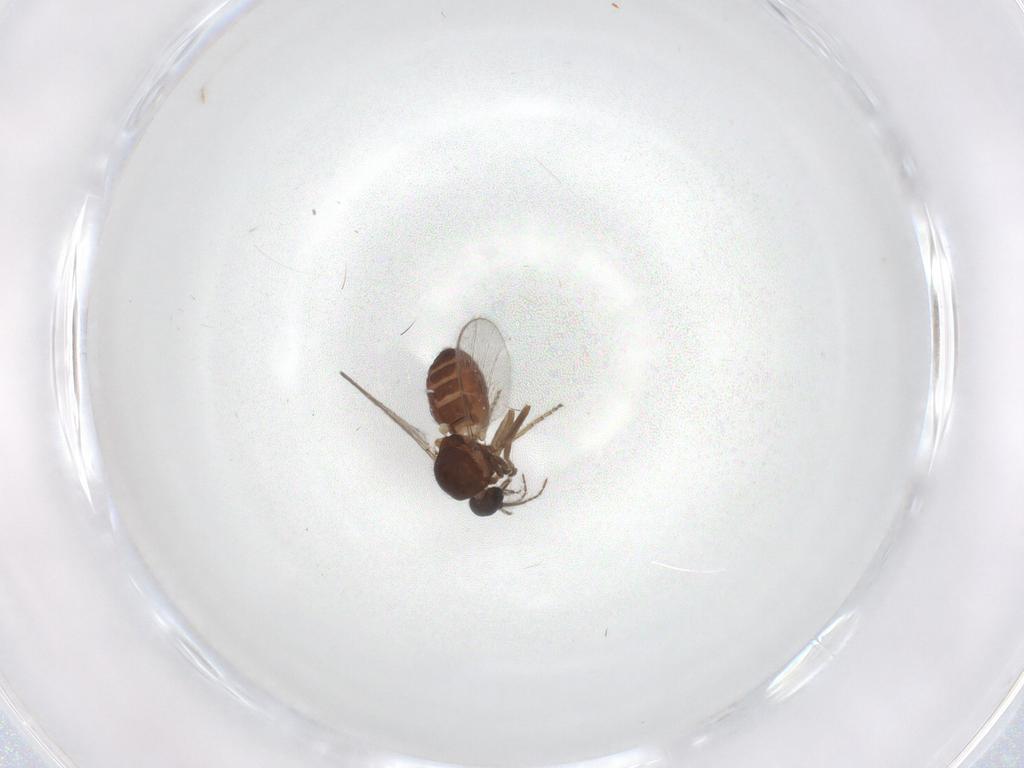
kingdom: Animalia
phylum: Arthropoda
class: Insecta
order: Diptera
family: Ceratopogonidae
